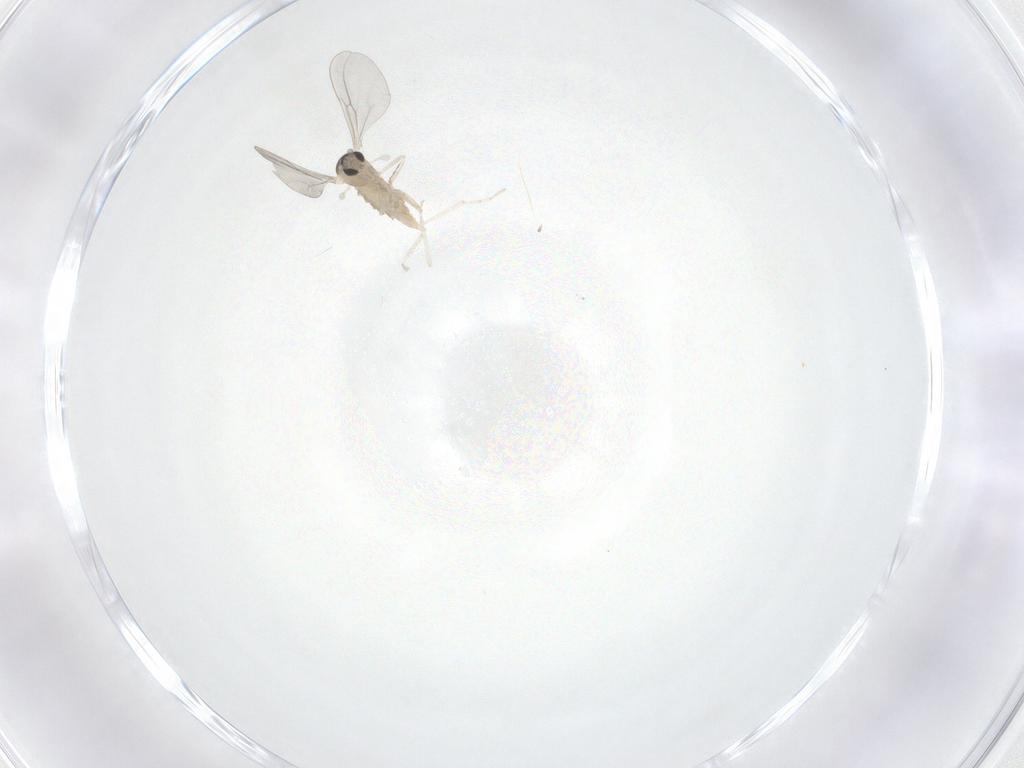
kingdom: Animalia
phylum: Arthropoda
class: Insecta
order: Diptera
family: Cecidomyiidae
